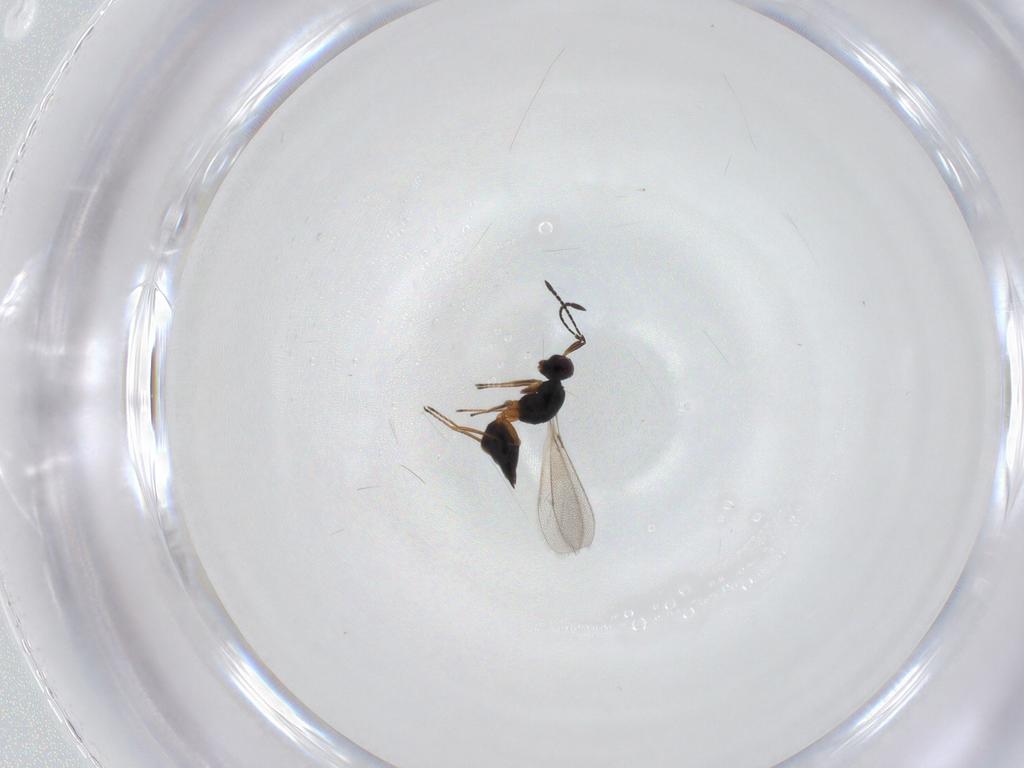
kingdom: Animalia
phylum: Arthropoda
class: Insecta
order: Hymenoptera
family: Mymaridae
